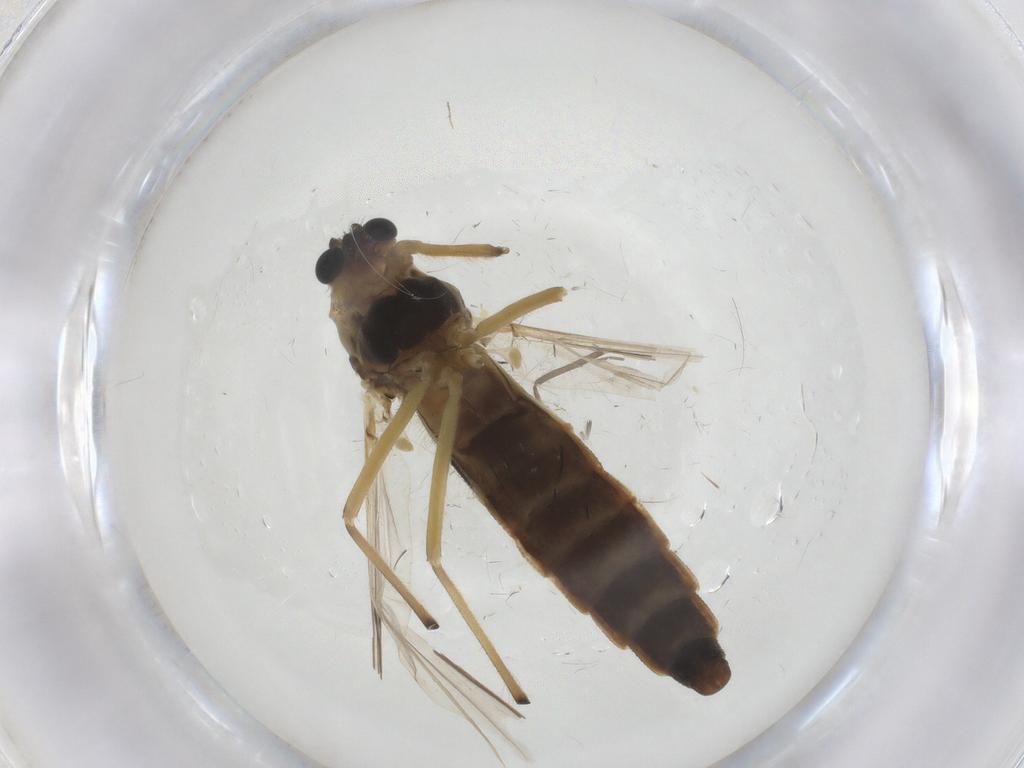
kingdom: Animalia
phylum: Arthropoda
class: Insecta
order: Diptera
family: Chironomidae
